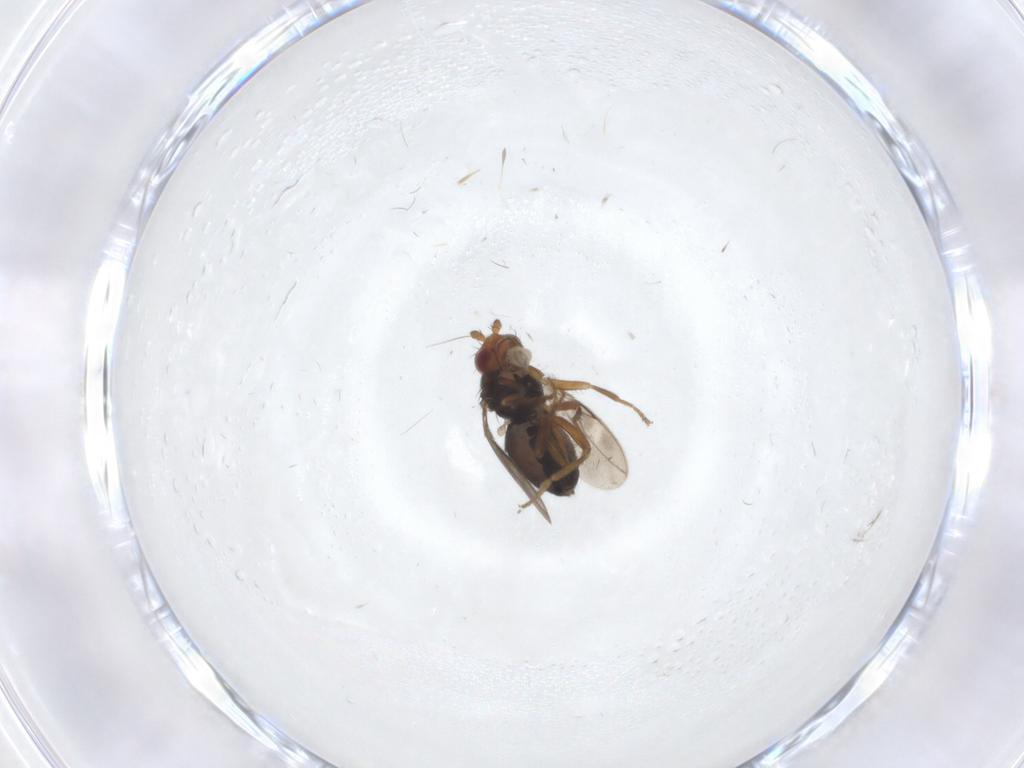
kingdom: Animalia
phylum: Arthropoda
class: Insecta
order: Diptera
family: Sphaeroceridae
